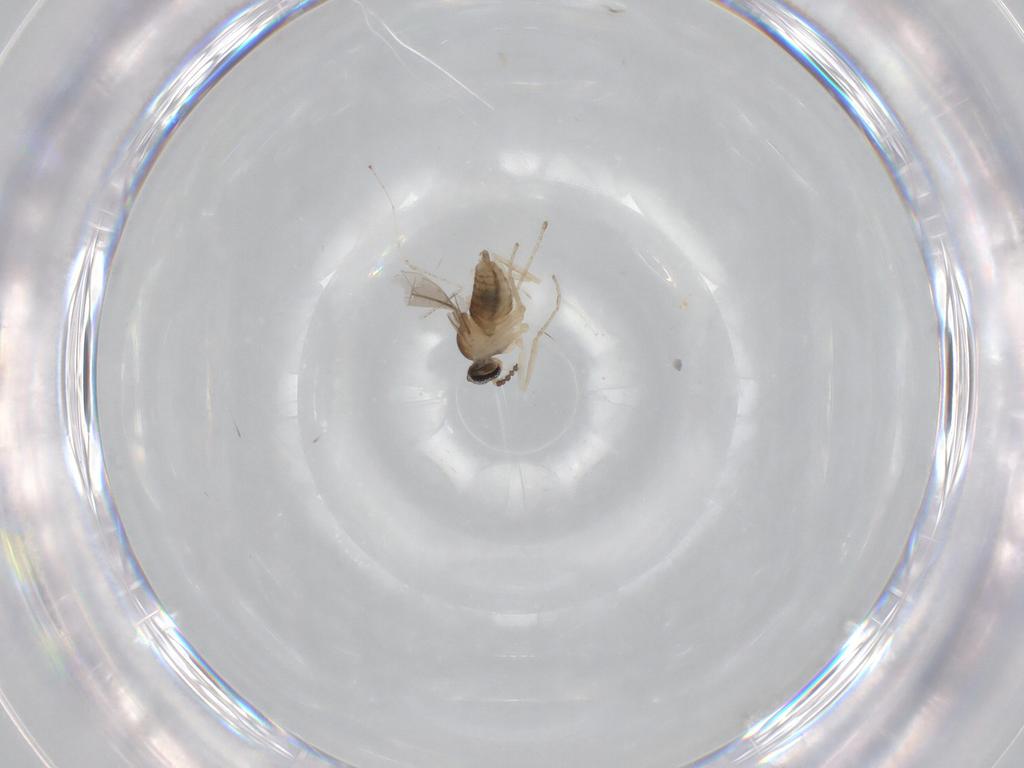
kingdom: Animalia
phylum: Arthropoda
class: Insecta
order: Diptera
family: Cecidomyiidae
